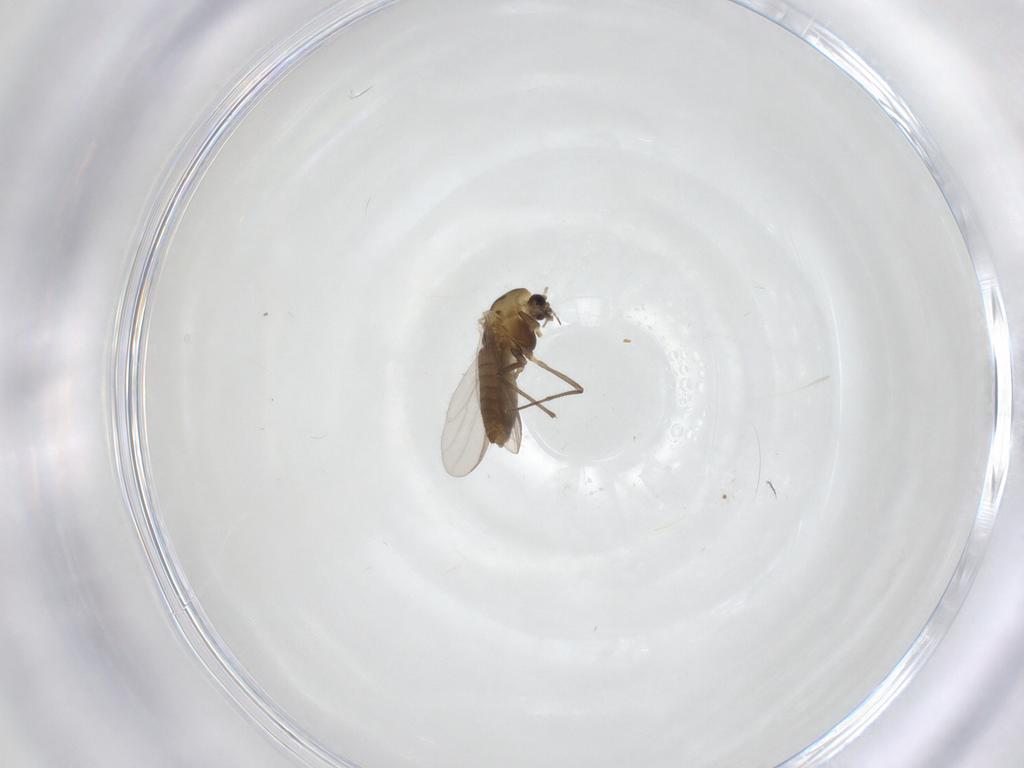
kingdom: Animalia
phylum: Arthropoda
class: Insecta
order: Diptera
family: Chironomidae
